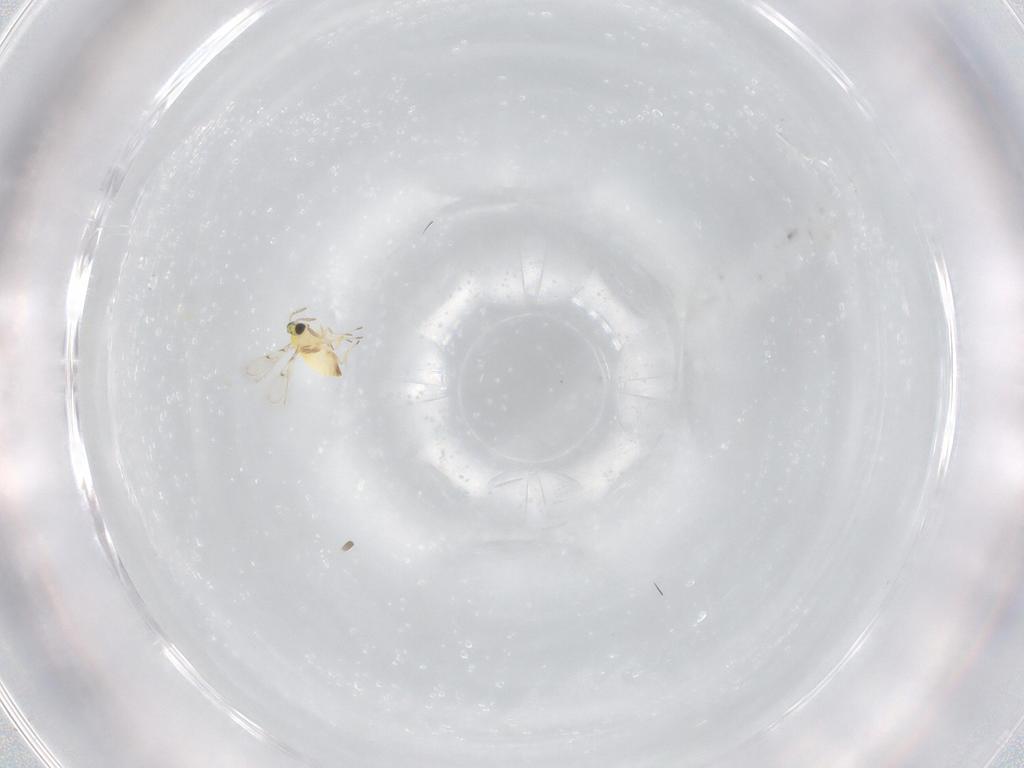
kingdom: Animalia
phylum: Arthropoda
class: Insecta
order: Hymenoptera
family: Trichogrammatidae
